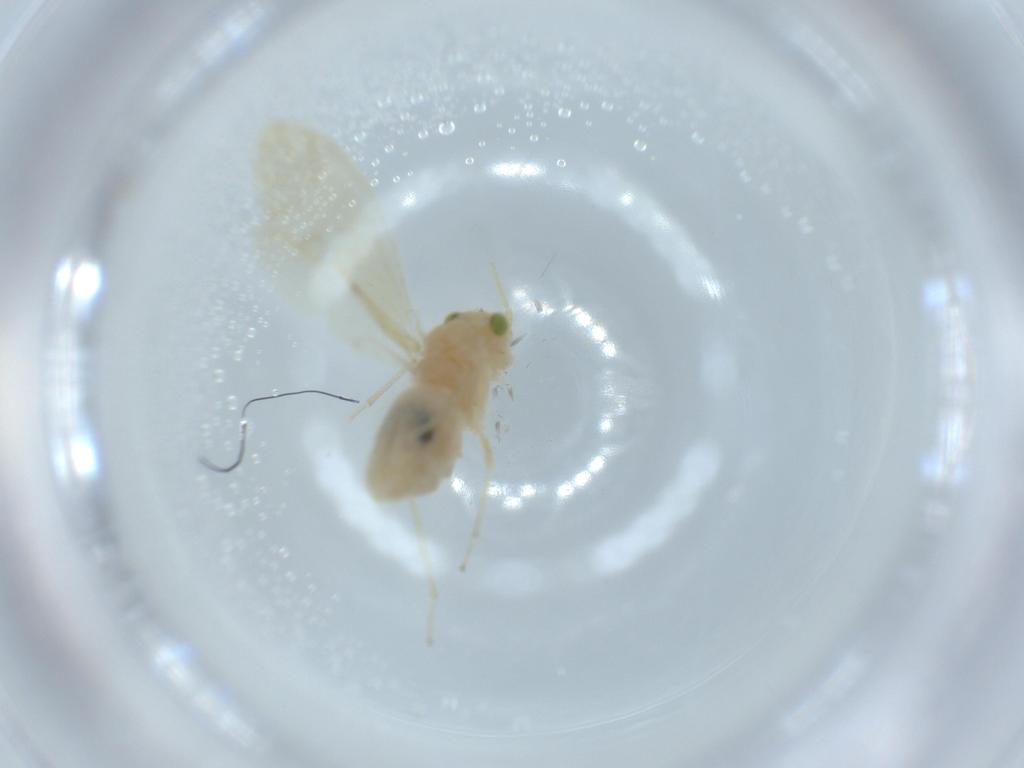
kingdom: Animalia
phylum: Arthropoda
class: Insecta
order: Psocodea
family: Caeciliusidae
